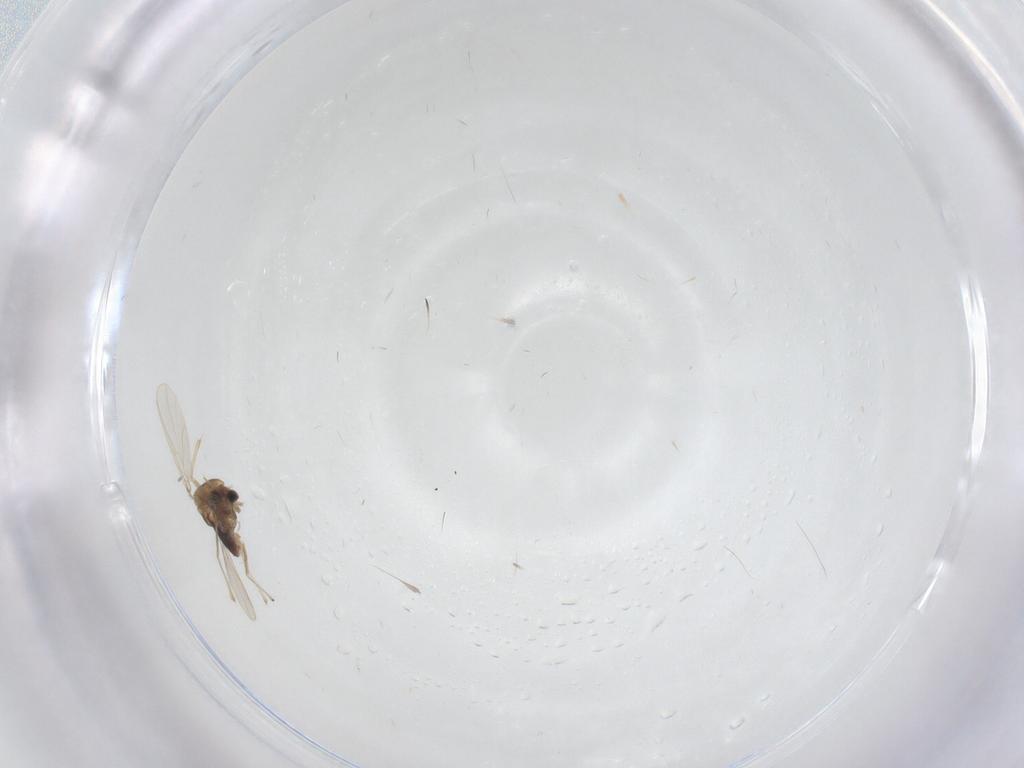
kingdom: Animalia
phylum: Arthropoda
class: Insecta
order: Diptera
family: Chironomidae
